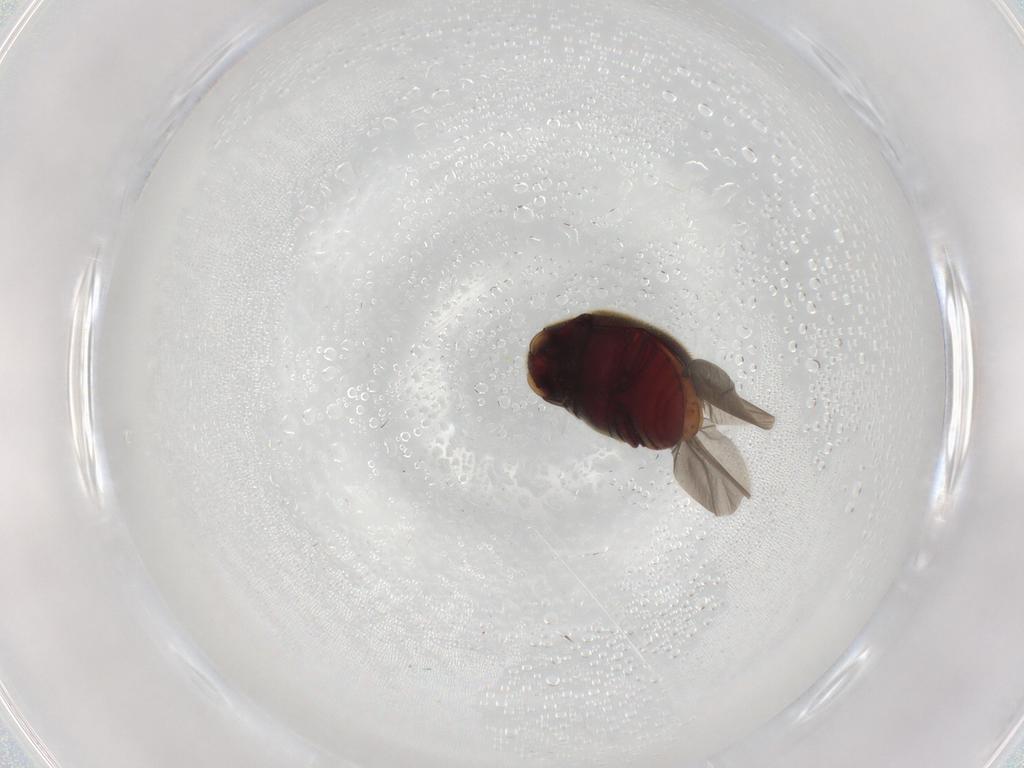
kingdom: Animalia
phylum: Arthropoda
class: Insecta
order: Coleoptera
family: Ptinidae
